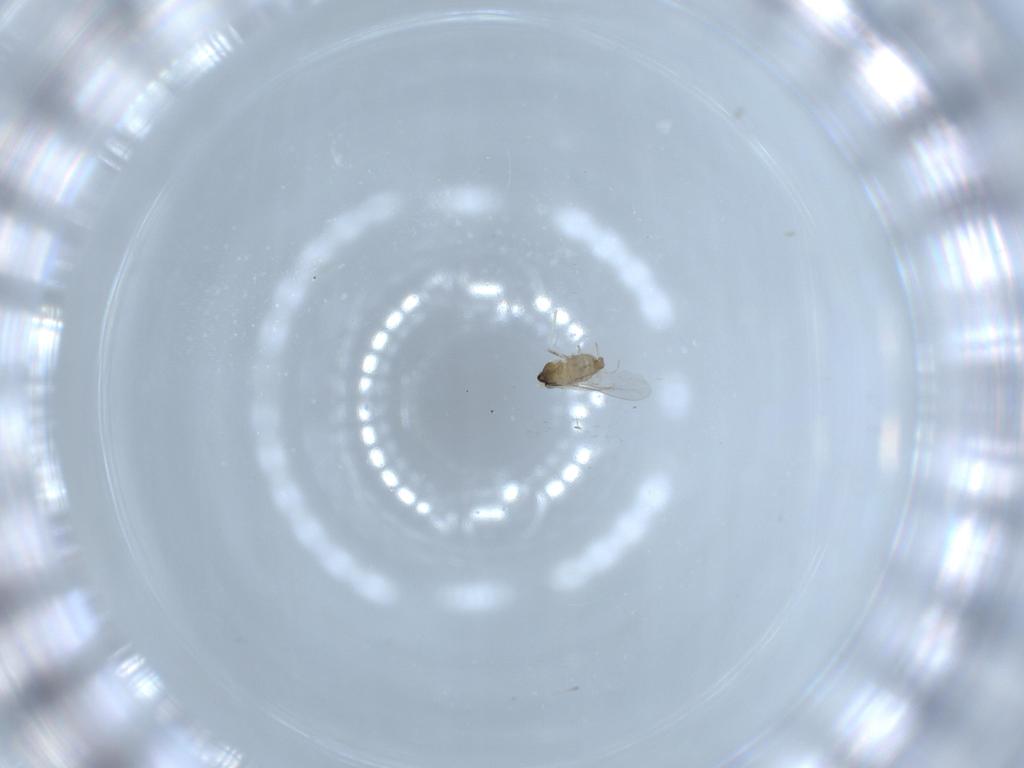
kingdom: Animalia
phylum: Arthropoda
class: Insecta
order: Diptera
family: Cecidomyiidae
